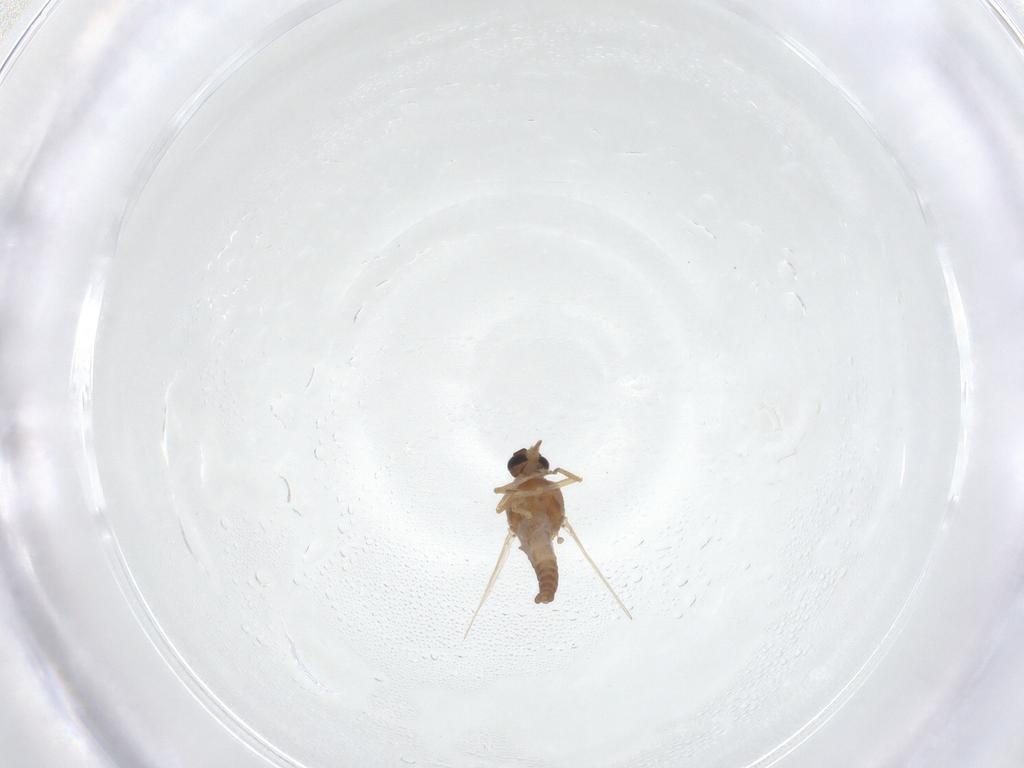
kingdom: Animalia
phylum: Arthropoda
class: Insecta
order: Diptera
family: Ceratopogonidae
